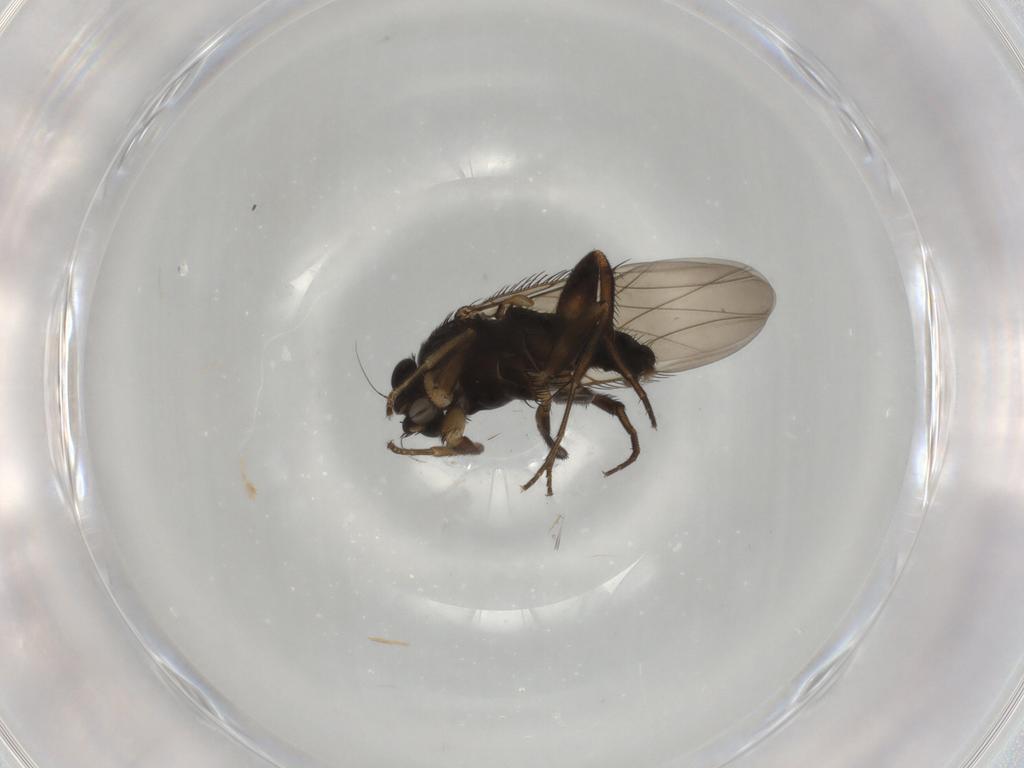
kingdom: Animalia
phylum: Arthropoda
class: Insecta
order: Diptera
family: Phoridae
